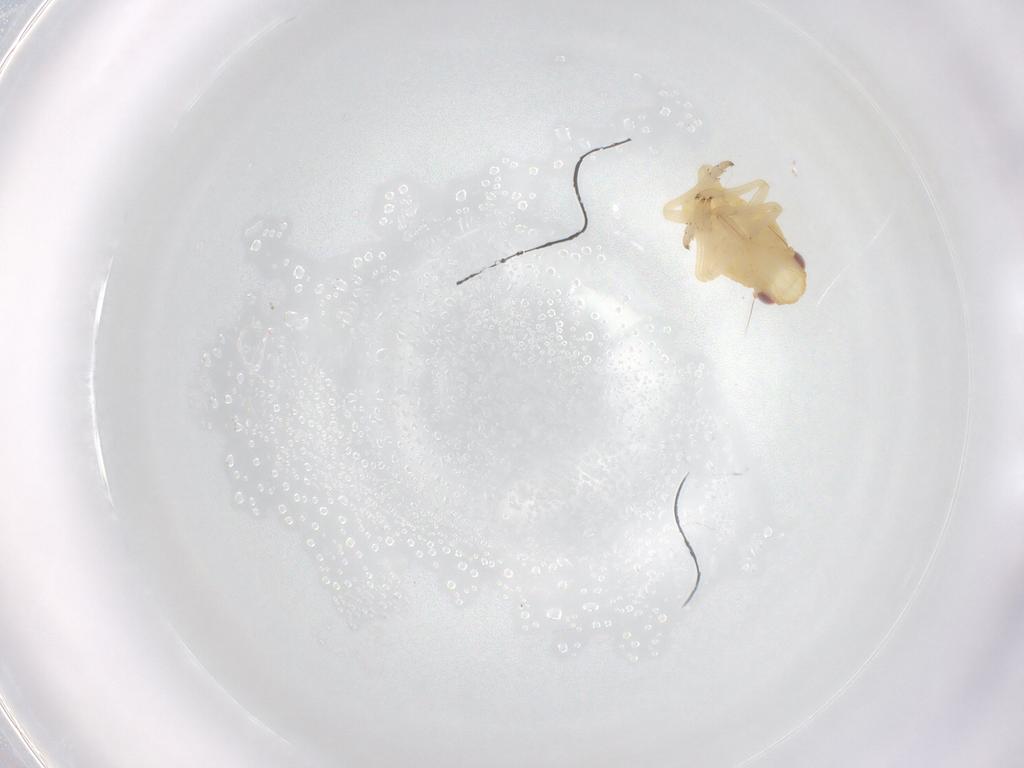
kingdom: Animalia
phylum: Arthropoda
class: Insecta
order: Hemiptera
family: Caliscelidae
